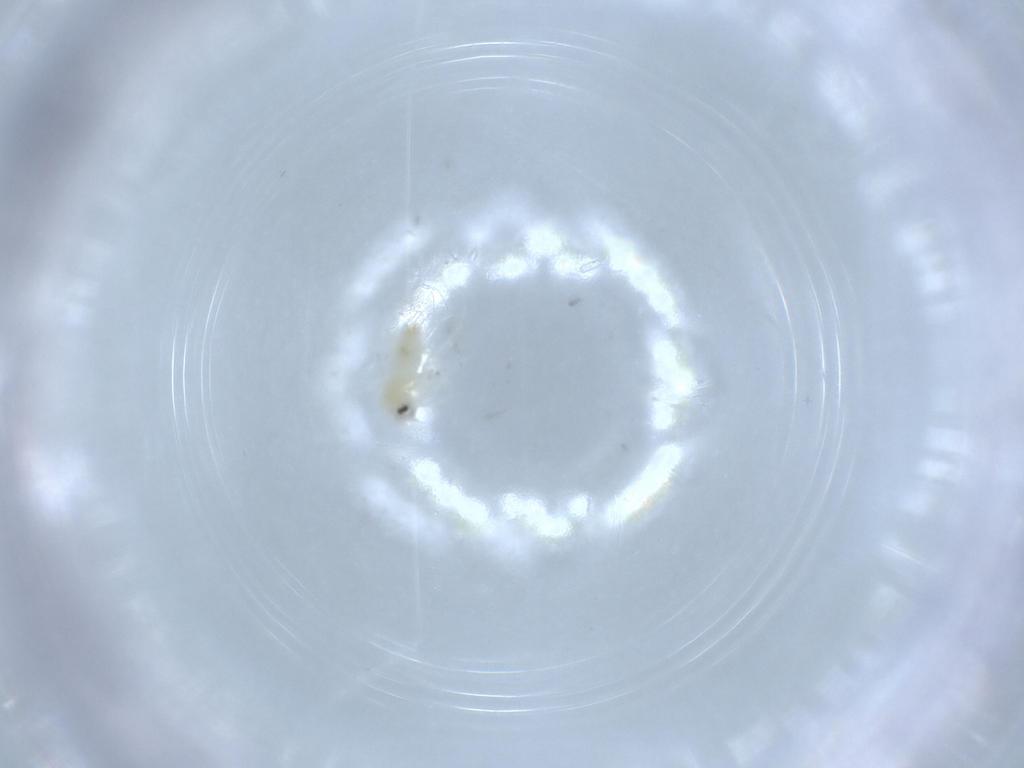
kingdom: Animalia
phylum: Arthropoda
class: Insecta
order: Hemiptera
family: Aleyrodidae
